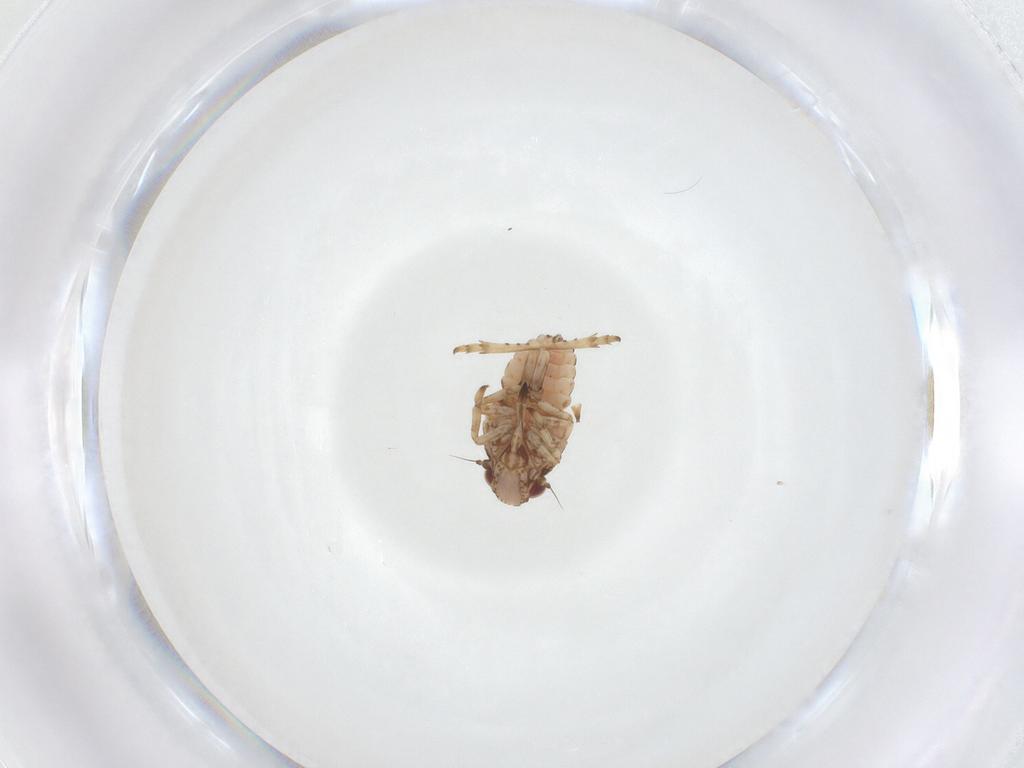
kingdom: Animalia
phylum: Arthropoda
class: Insecta
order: Hemiptera
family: Tropiduchidae
